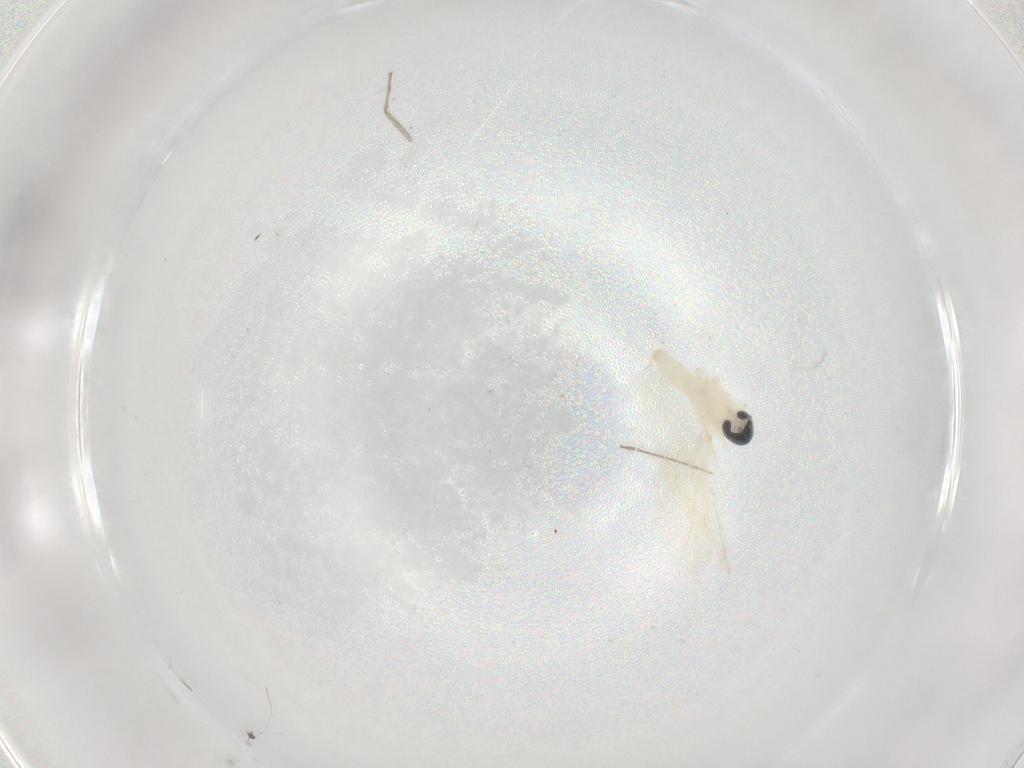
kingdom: Animalia
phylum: Arthropoda
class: Insecta
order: Diptera
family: Cecidomyiidae
